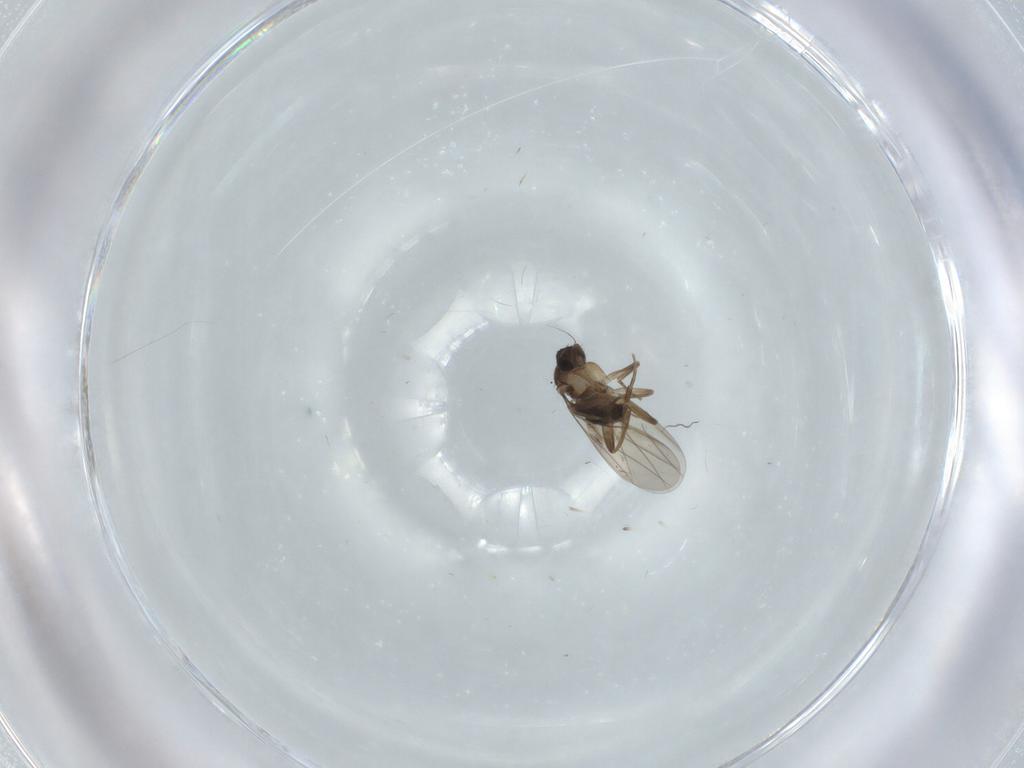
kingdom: Animalia
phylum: Arthropoda
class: Insecta
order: Diptera
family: Phoridae
